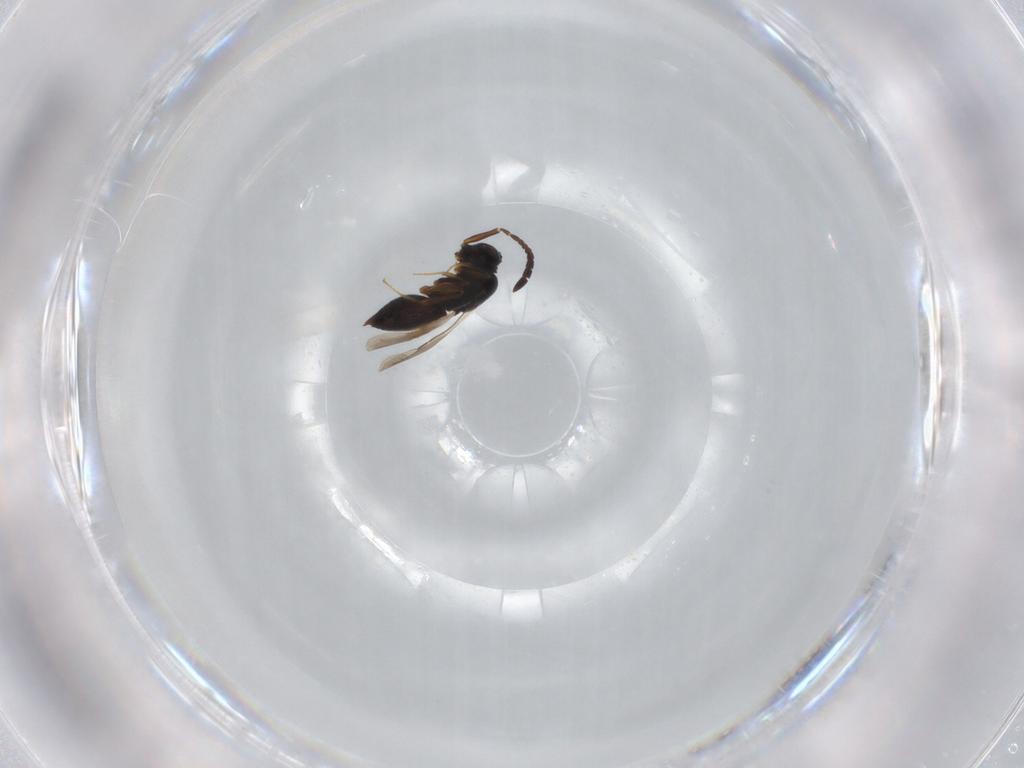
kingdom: Animalia
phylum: Arthropoda
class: Insecta
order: Hymenoptera
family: Apidae
